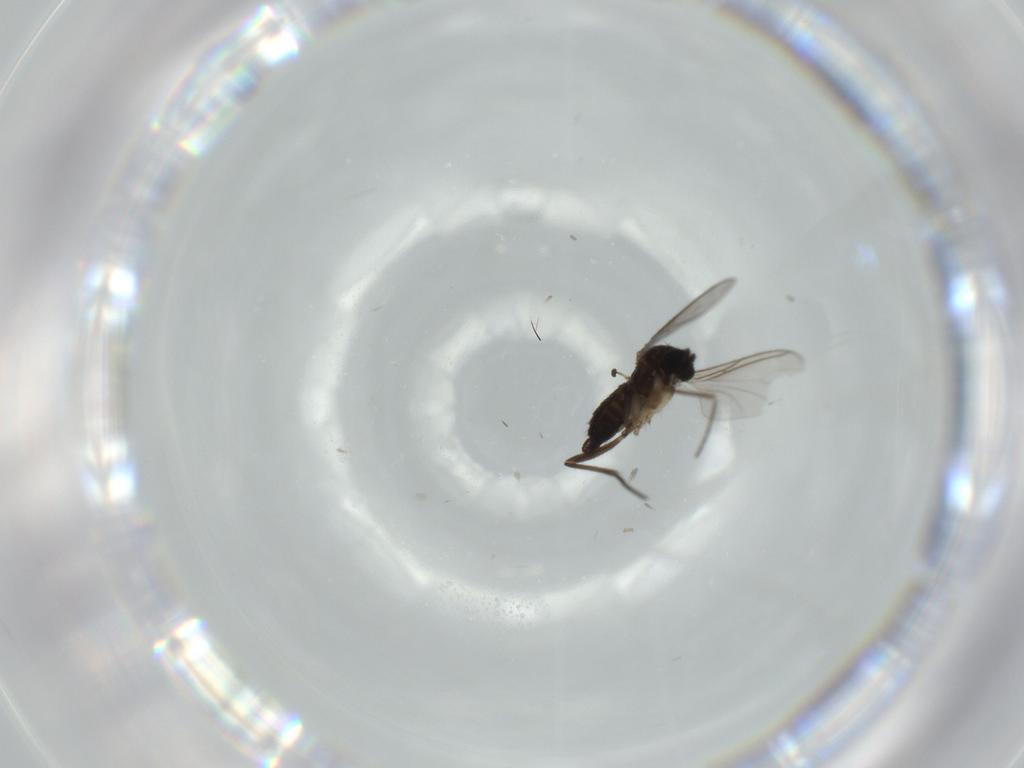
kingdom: Animalia
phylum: Arthropoda
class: Insecta
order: Diptera
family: Sciaridae
